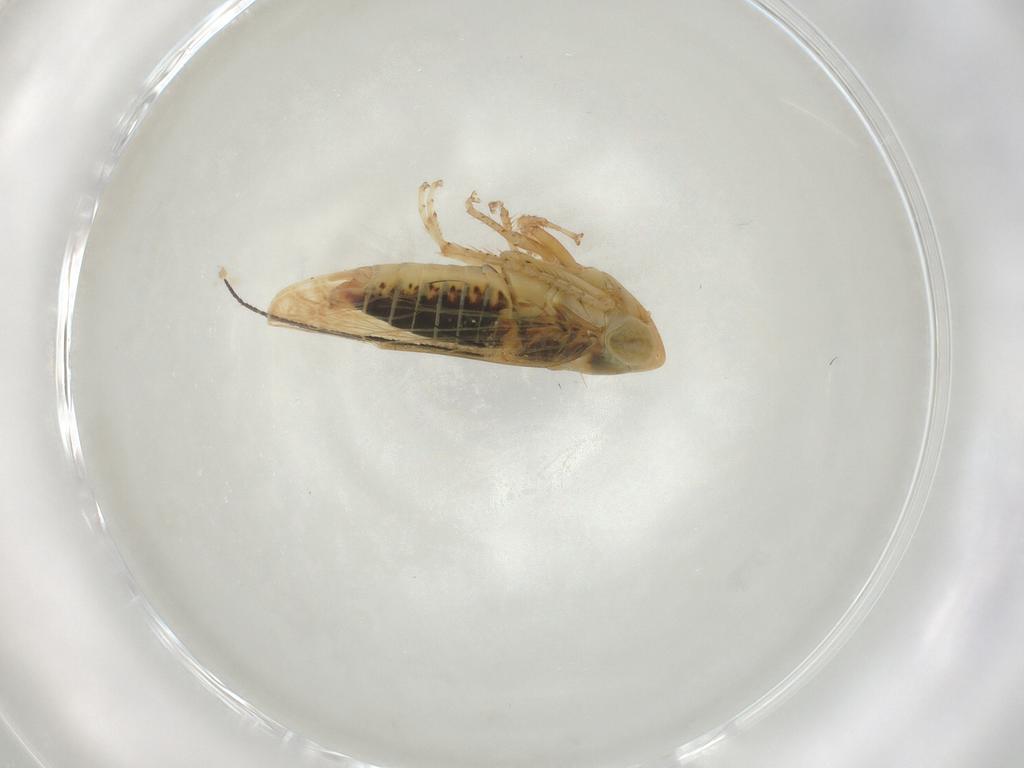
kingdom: Animalia
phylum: Arthropoda
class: Insecta
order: Hemiptera
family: Cicadellidae
